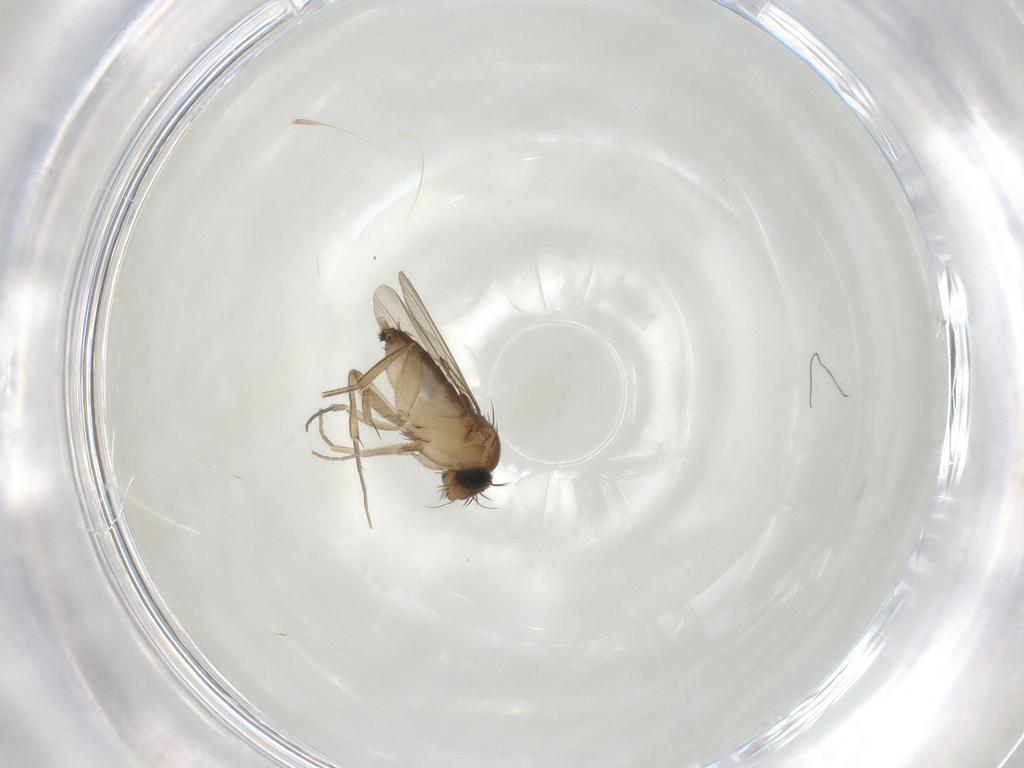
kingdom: Animalia
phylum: Arthropoda
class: Insecta
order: Diptera
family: Phoridae
